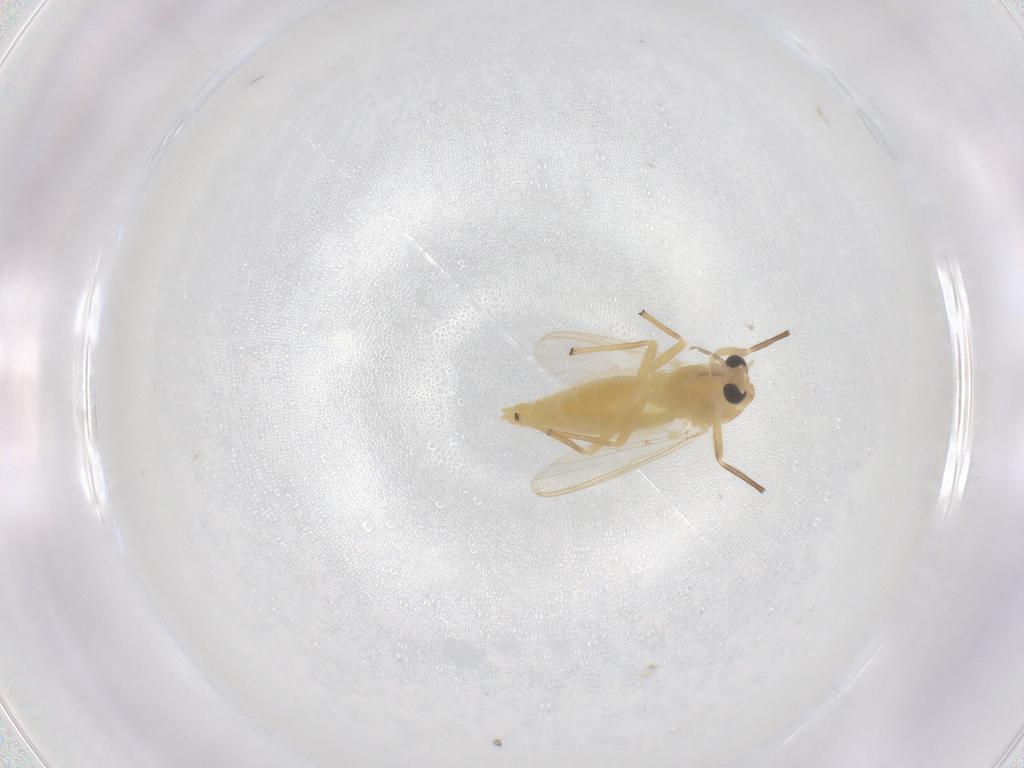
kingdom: Animalia
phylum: Arthropoda
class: Insecta
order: Diptera
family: Chironomidae
